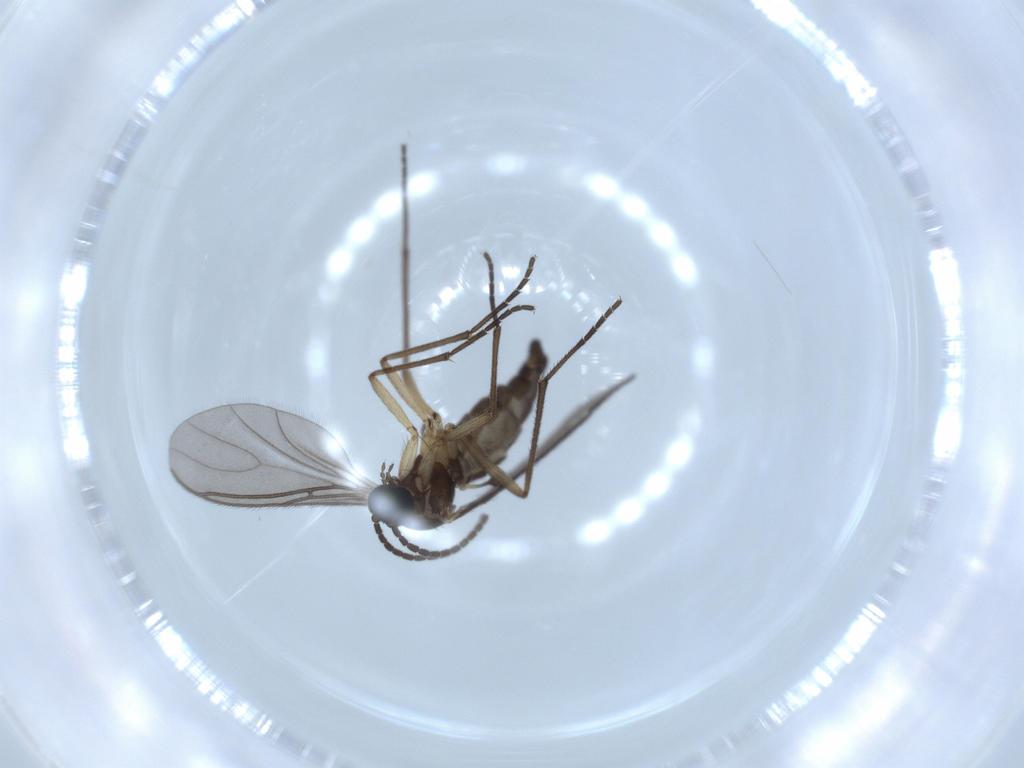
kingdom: Animalia
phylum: Arthropoda
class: Insecta
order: Diptera
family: Sciaridae
